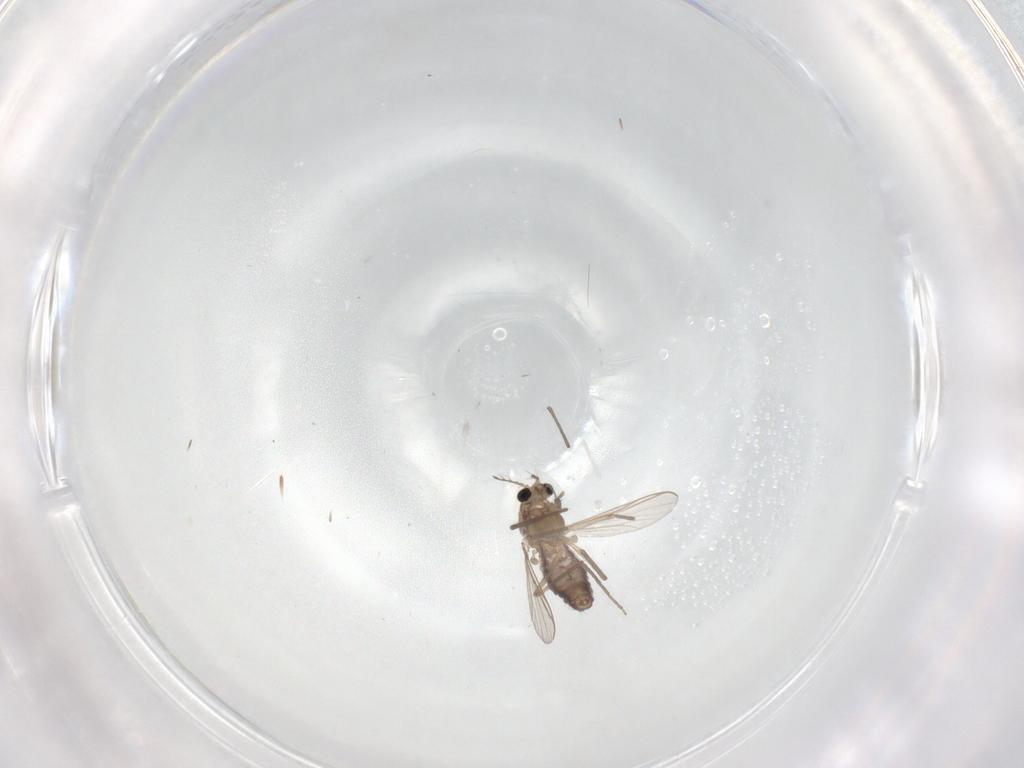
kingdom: Animalia
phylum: Arthropoda
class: Insecta
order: Diptera
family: Chironomidae
